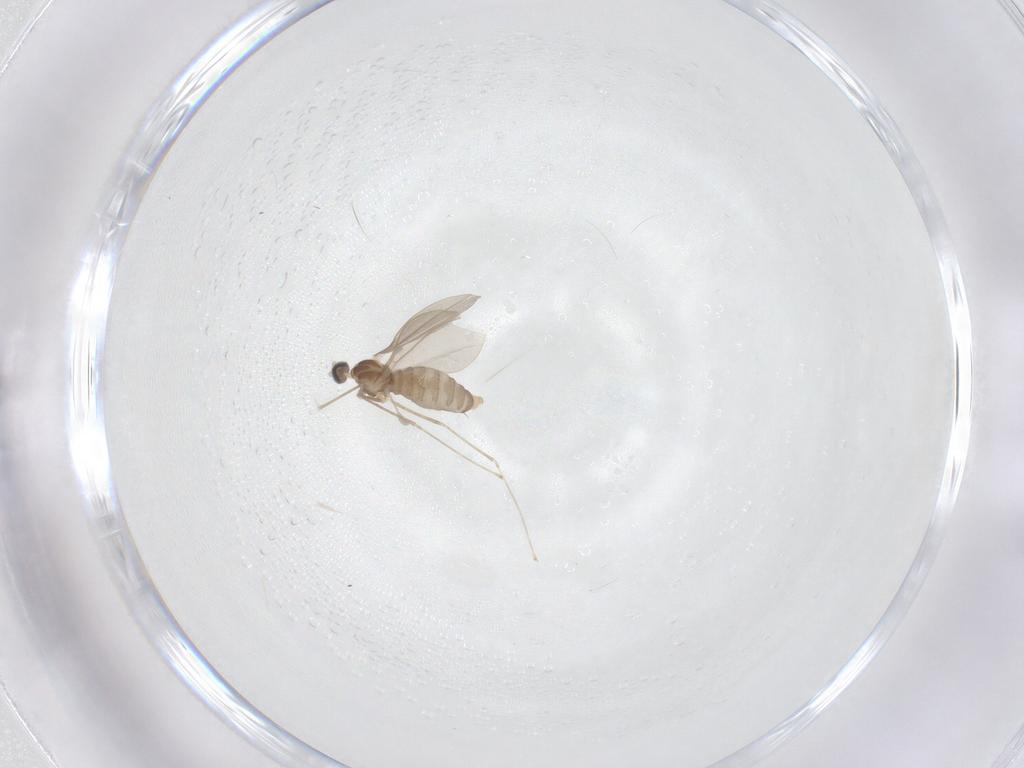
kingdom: Animalia
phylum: Arthropoda
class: Insecta
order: Diptera
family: Cecidomyiidae
